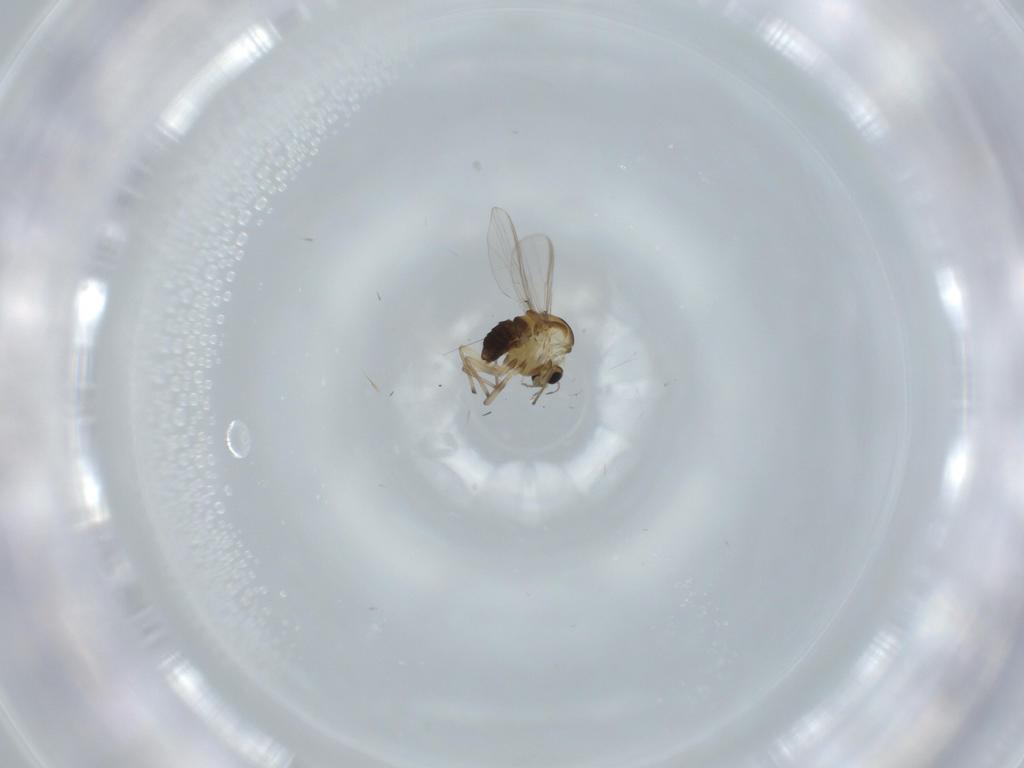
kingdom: Animalia
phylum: Arthropoda
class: Insecta
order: Diptera
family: Chironomidae
